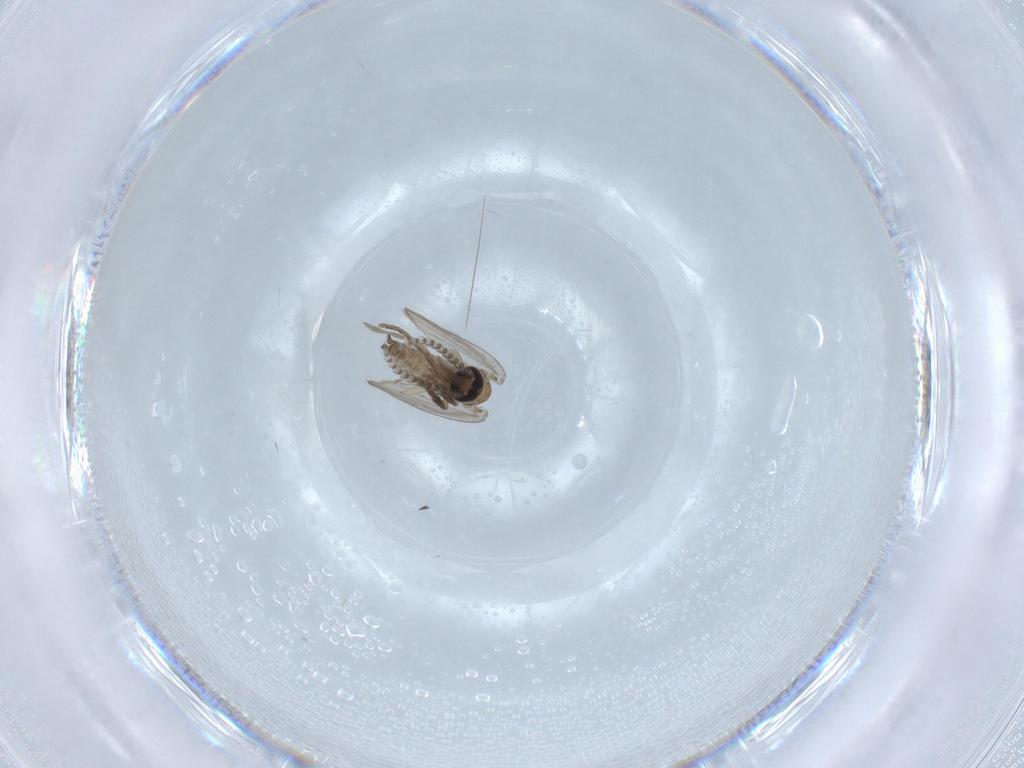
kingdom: Animalia
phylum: Arthropoda
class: Insecta
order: Diptera
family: Psychodidae
